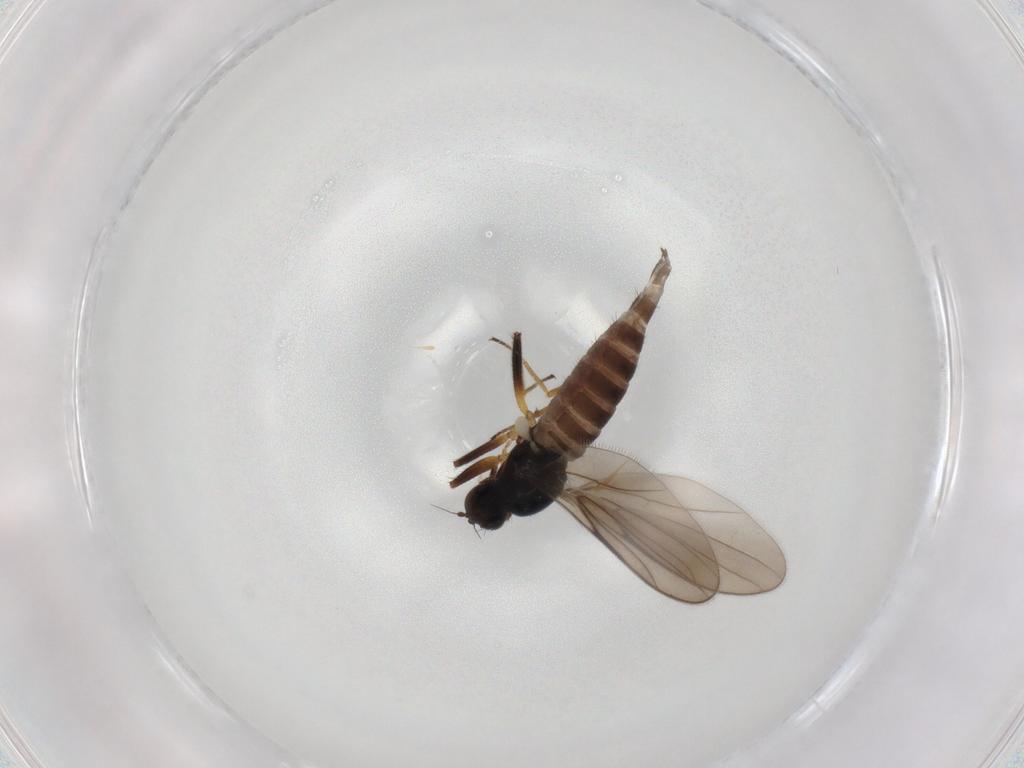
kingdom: Animalia
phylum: Arthropoda
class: Insecta
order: Diptera
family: Hybotidae
